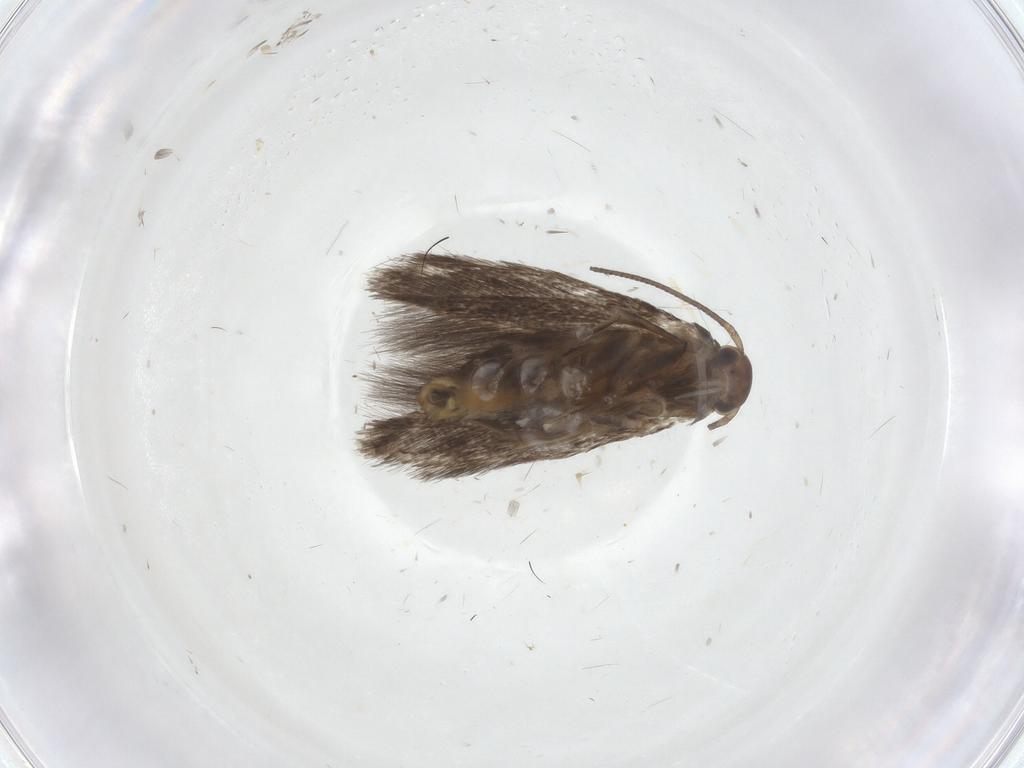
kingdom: Animalia
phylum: Arthropoda
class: Insecta
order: Lepidoptera
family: Elachistidae
